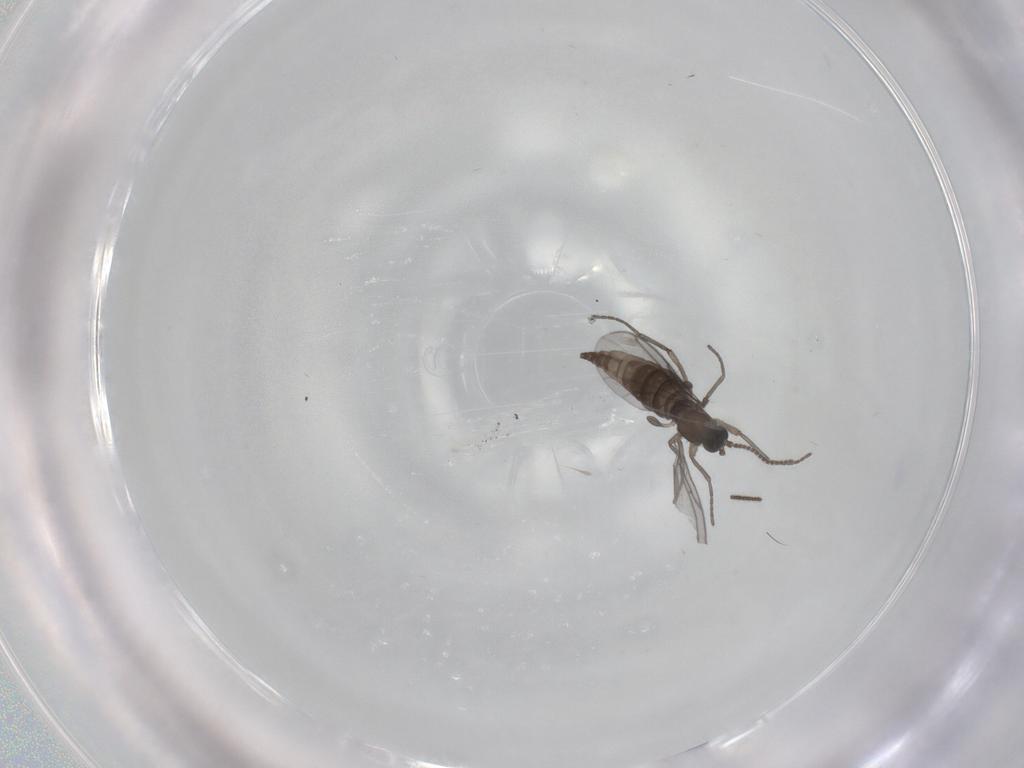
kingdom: Animalia
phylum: Arthropoda
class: Insecta
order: Diptera
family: Sciaridae
